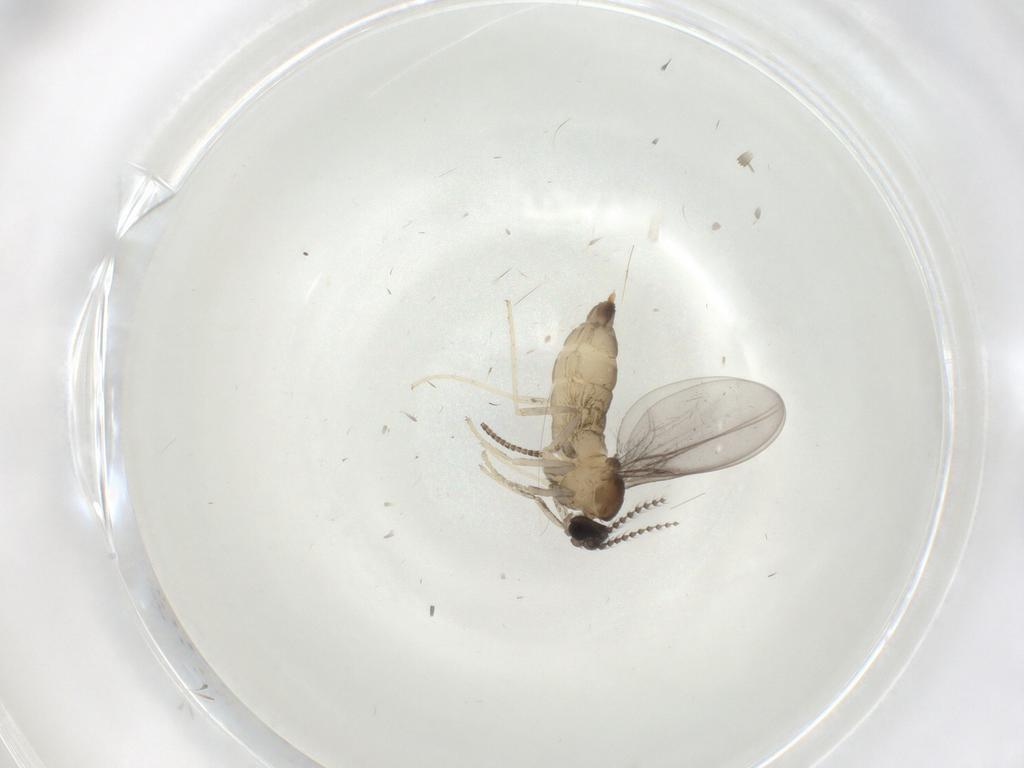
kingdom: Animalia
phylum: Arthropoda
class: Insecta
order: Diptera
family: Cecidomyiidae
